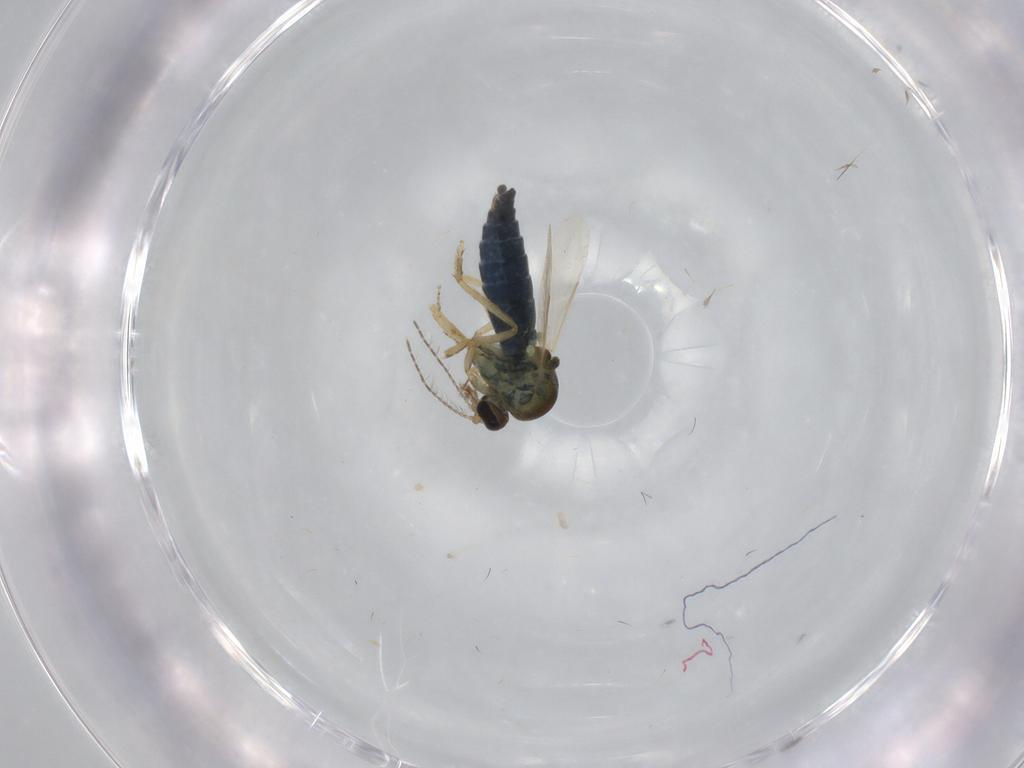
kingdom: Animalia
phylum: Arthropoda
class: Insecta
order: Diptera
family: Ceratopogonidae
